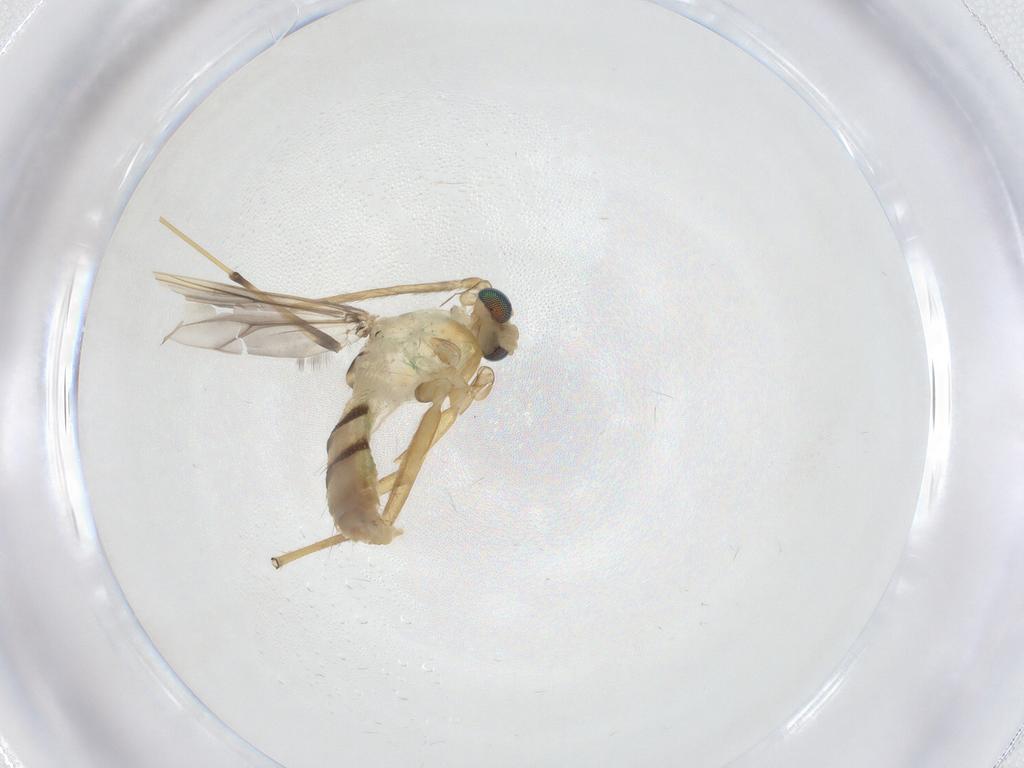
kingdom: Animalia
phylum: Arthropoda
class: Insecta
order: Diptera
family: Chironomidae
